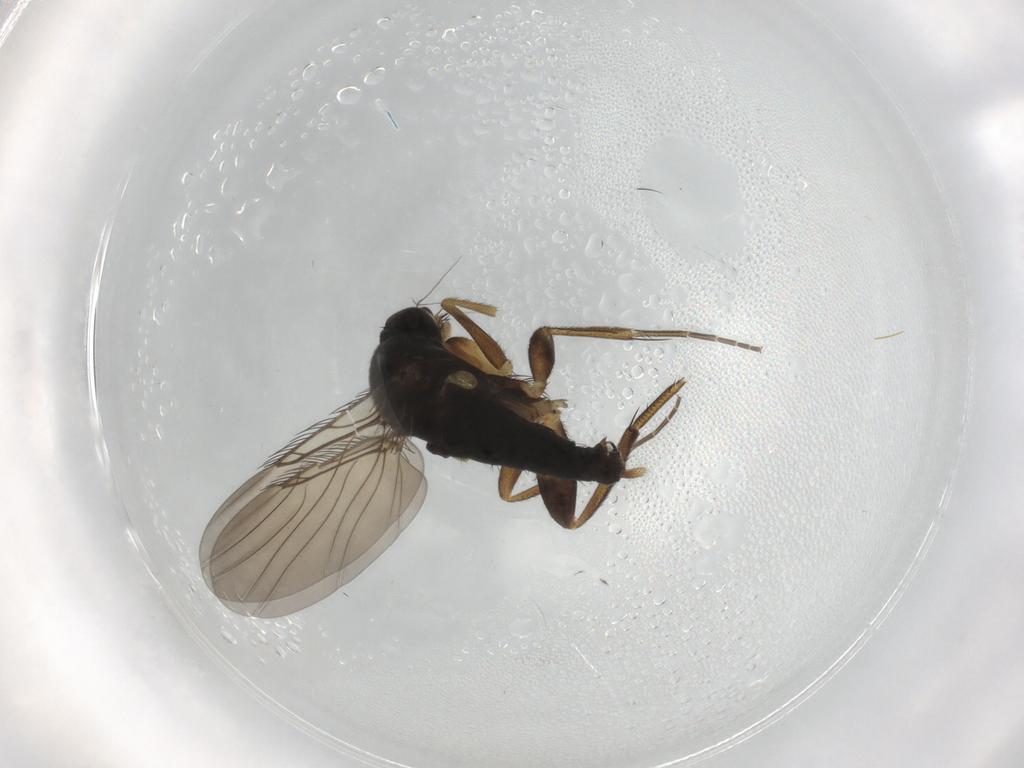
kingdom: Animalia
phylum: Arthropoda
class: Insecta
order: Diptera
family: Phoridae
